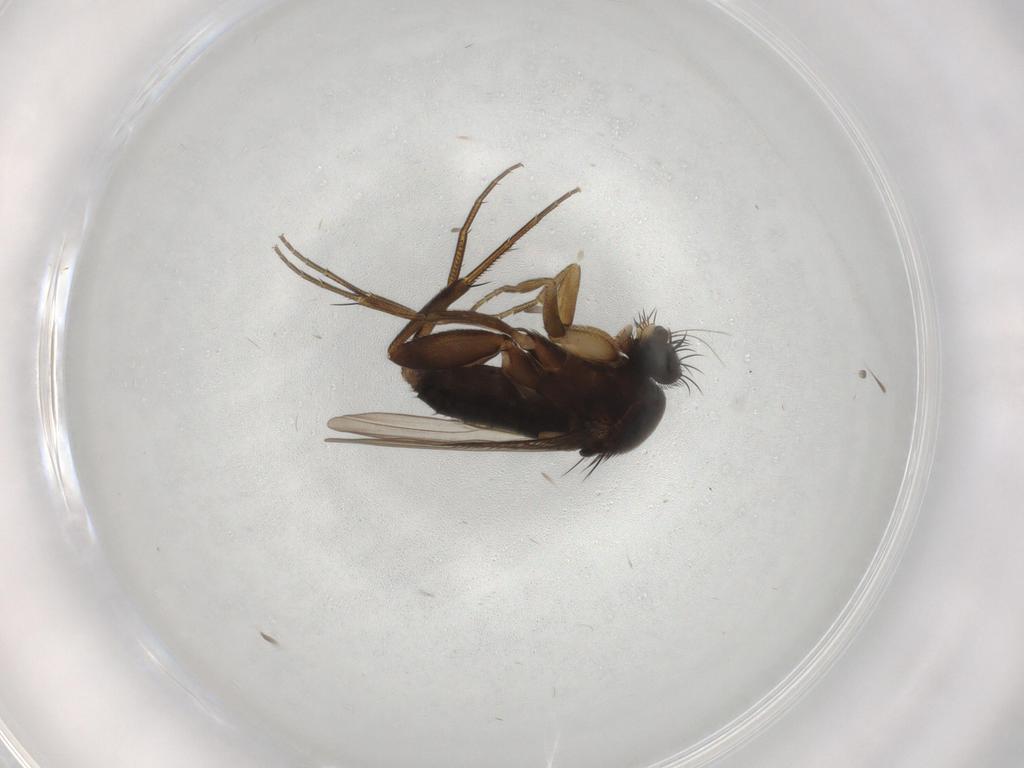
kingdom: Animalia
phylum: Arthropoda
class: Insecta
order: Diptera
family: Phoridae
